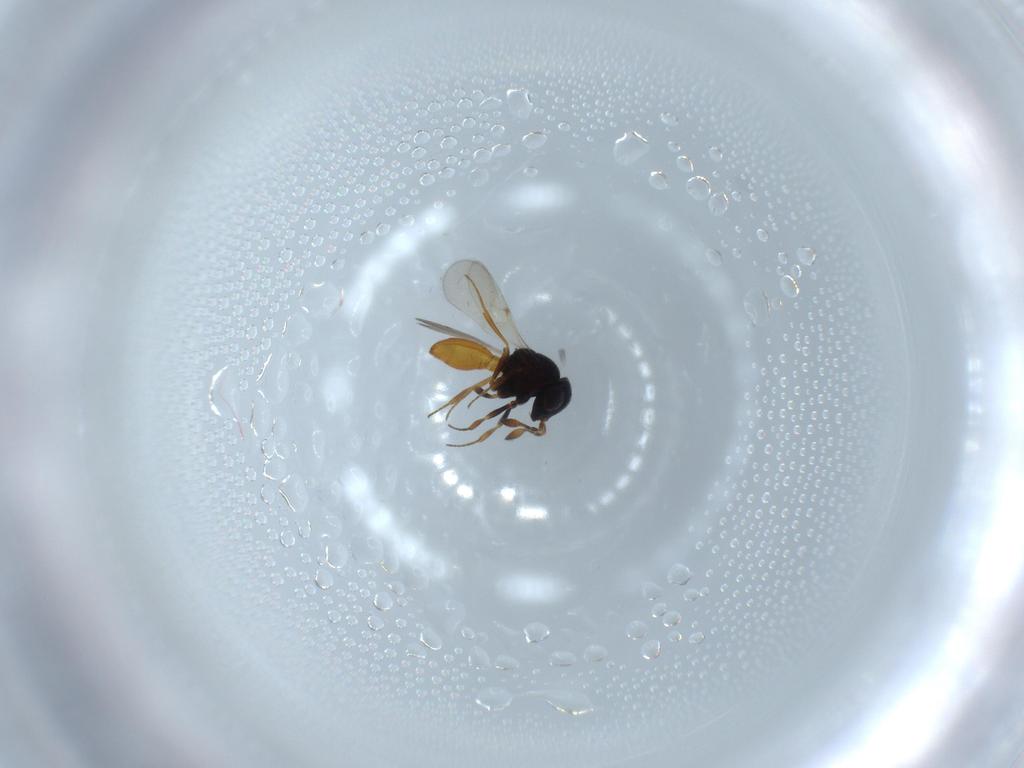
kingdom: Animalia
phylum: Arthropoda
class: Insecta
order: Hymenoptera
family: Scelionidae
